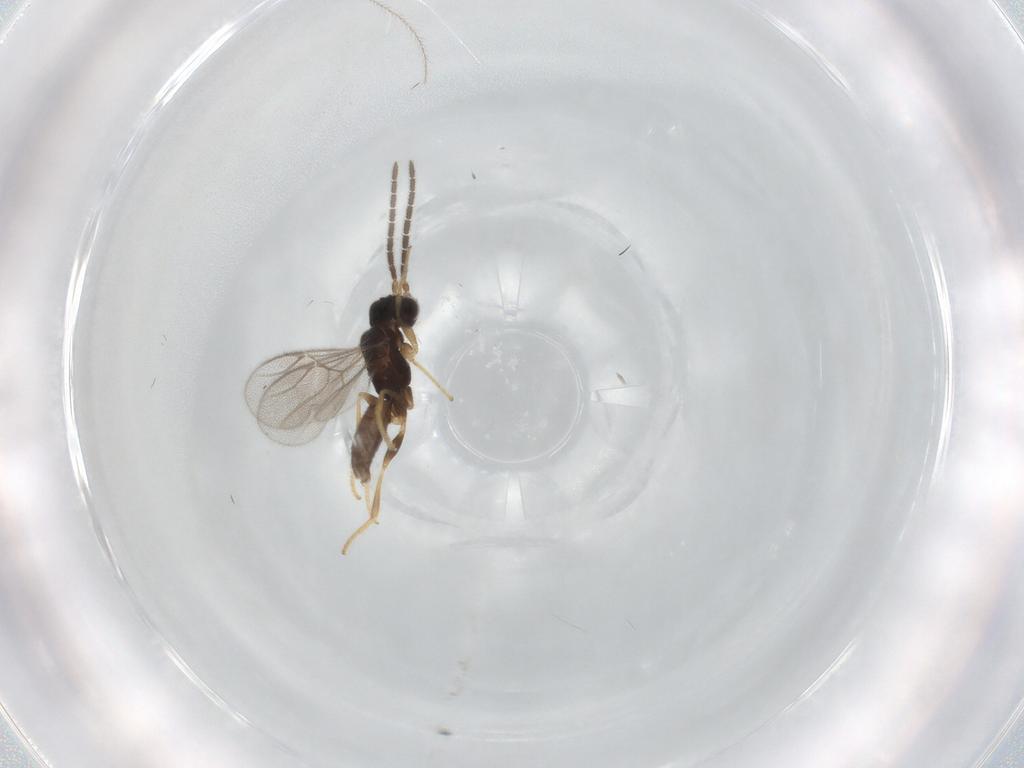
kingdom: Animalia
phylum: Arthropoda
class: Insecta
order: Hymenoptera
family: Dryinidae
